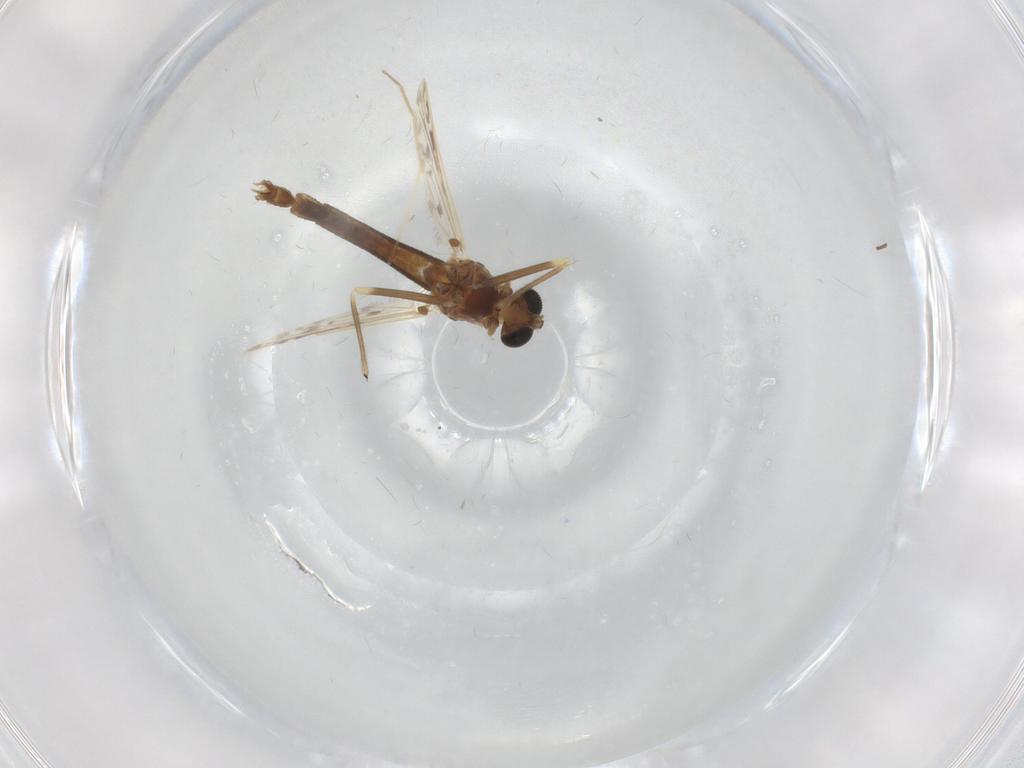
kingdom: Animalia
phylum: Arthropoda
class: Insecta
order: Diptera
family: Chironomidae
